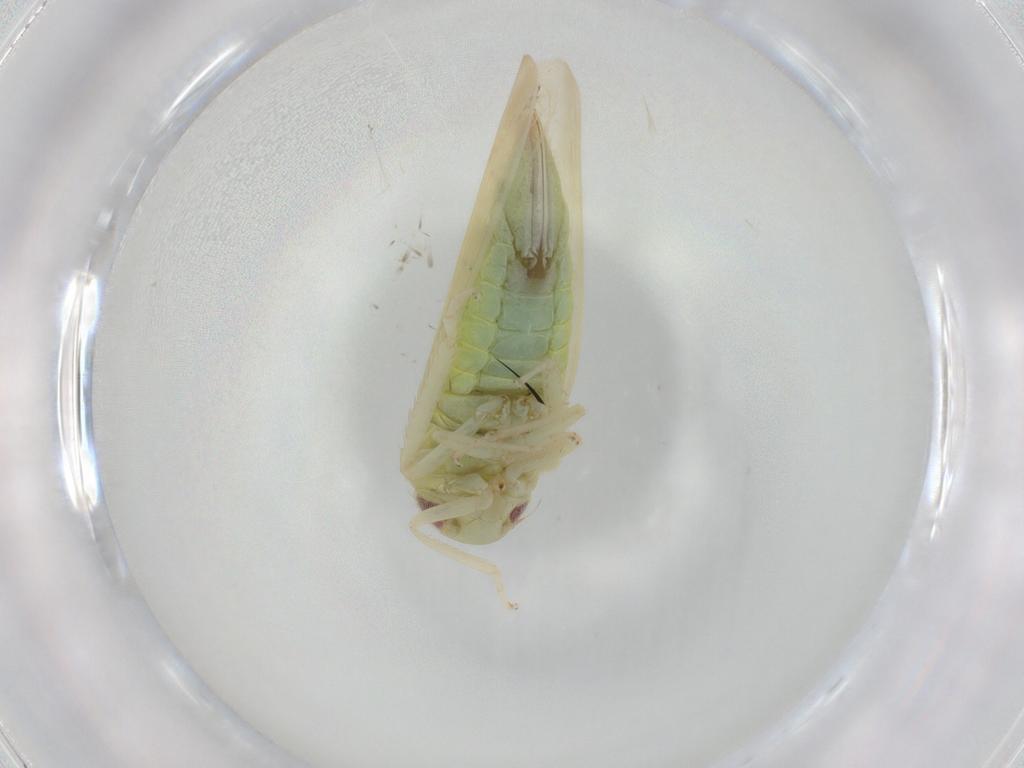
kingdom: Animalia
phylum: Arthropoda
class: Insecta
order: Hemiptera
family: Cicadellidae
